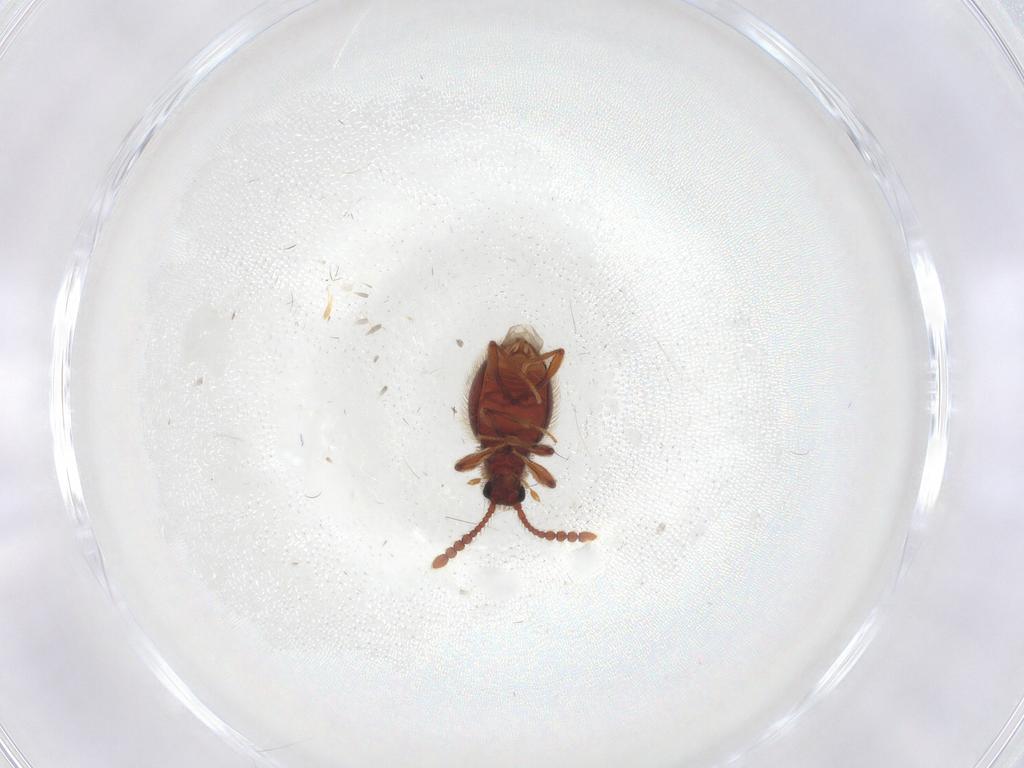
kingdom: Animalia
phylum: Arthropoda
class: Insecta
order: Coleoptera
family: Staphylinidae
